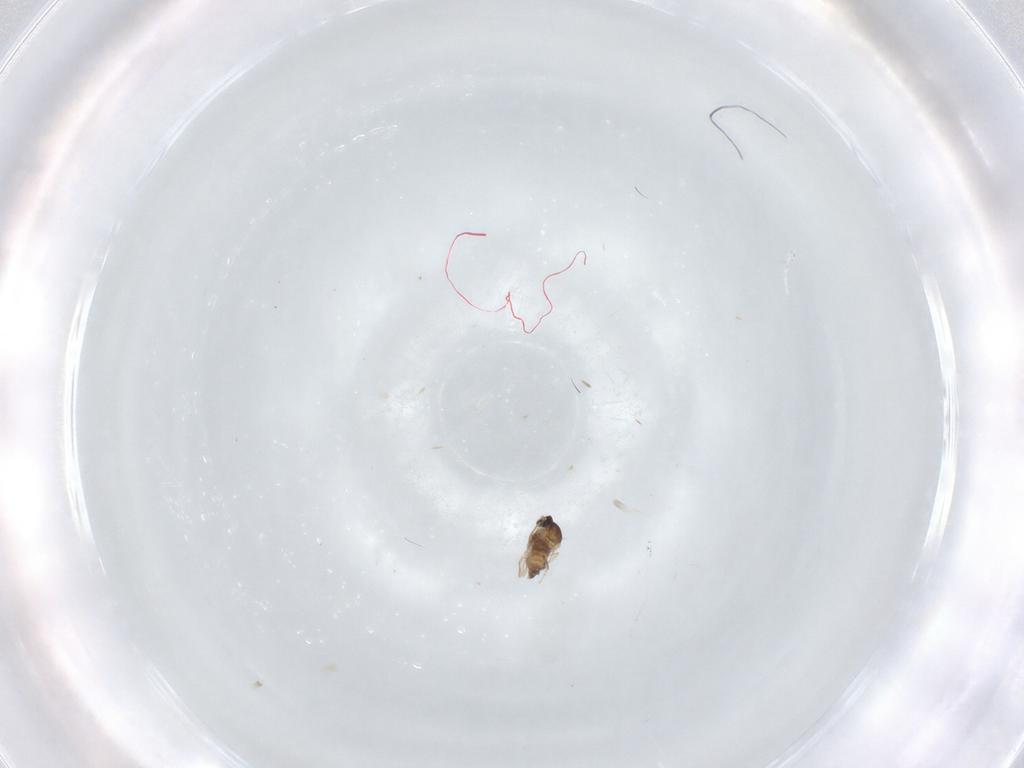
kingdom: Animalia
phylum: Arthropoda
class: Insecta
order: Diptera
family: Cecidomyiidae
